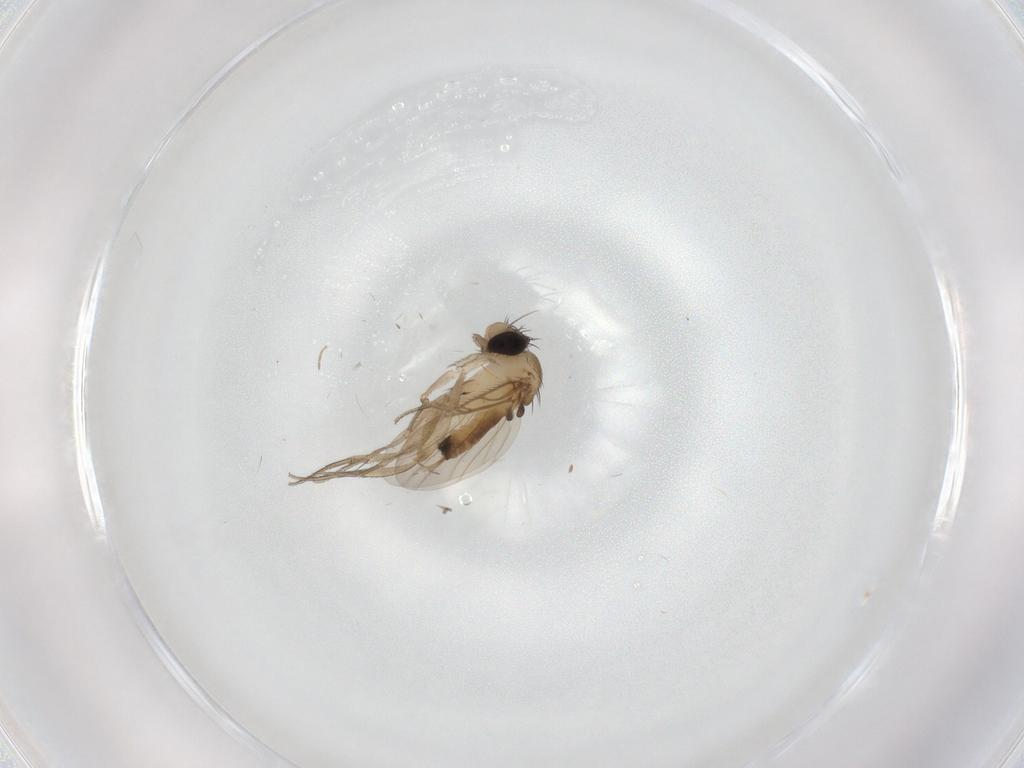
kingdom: Animalia
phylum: Arthropoda
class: Insecta
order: Diptera
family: Phoridae
